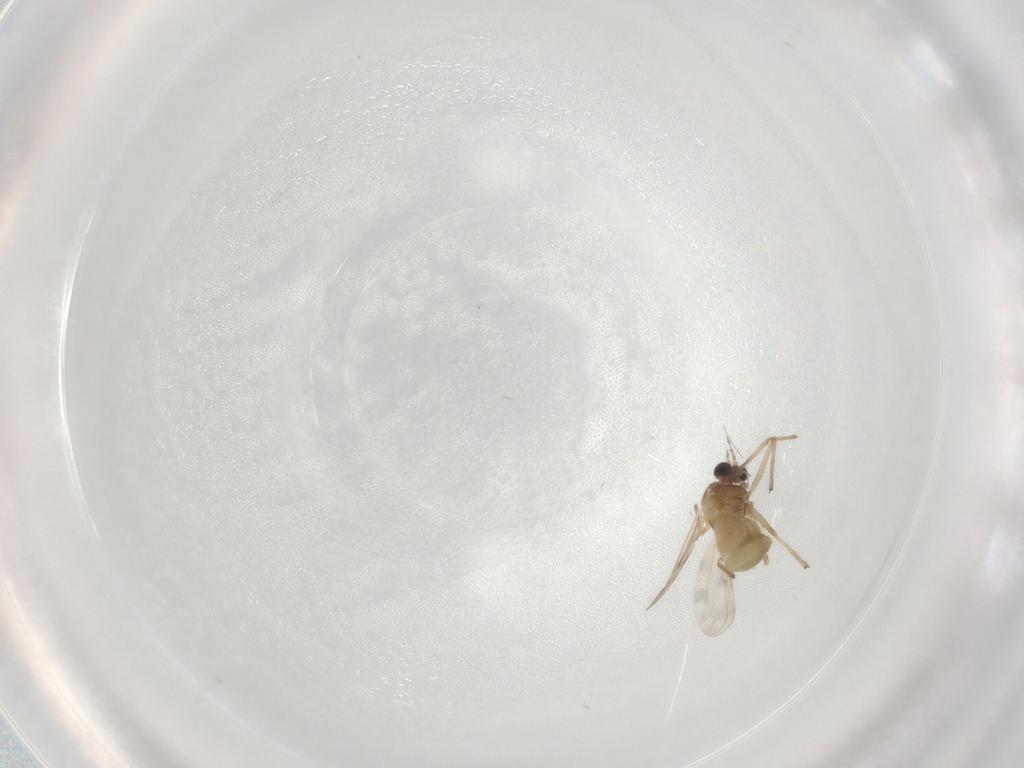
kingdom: Animalia
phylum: Arthropoda
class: Insecta
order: Diptera
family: Chironomidae
